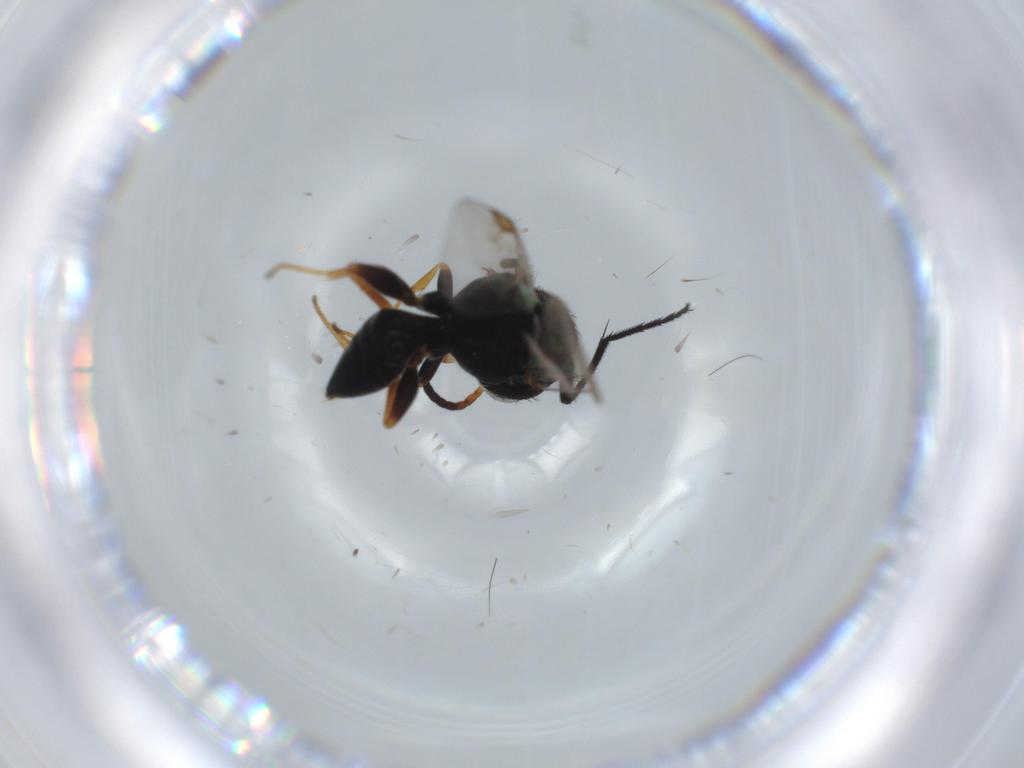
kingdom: Animalia
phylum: Arthropoda
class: Insecta
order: Hymenoptera
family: Dryinidae
